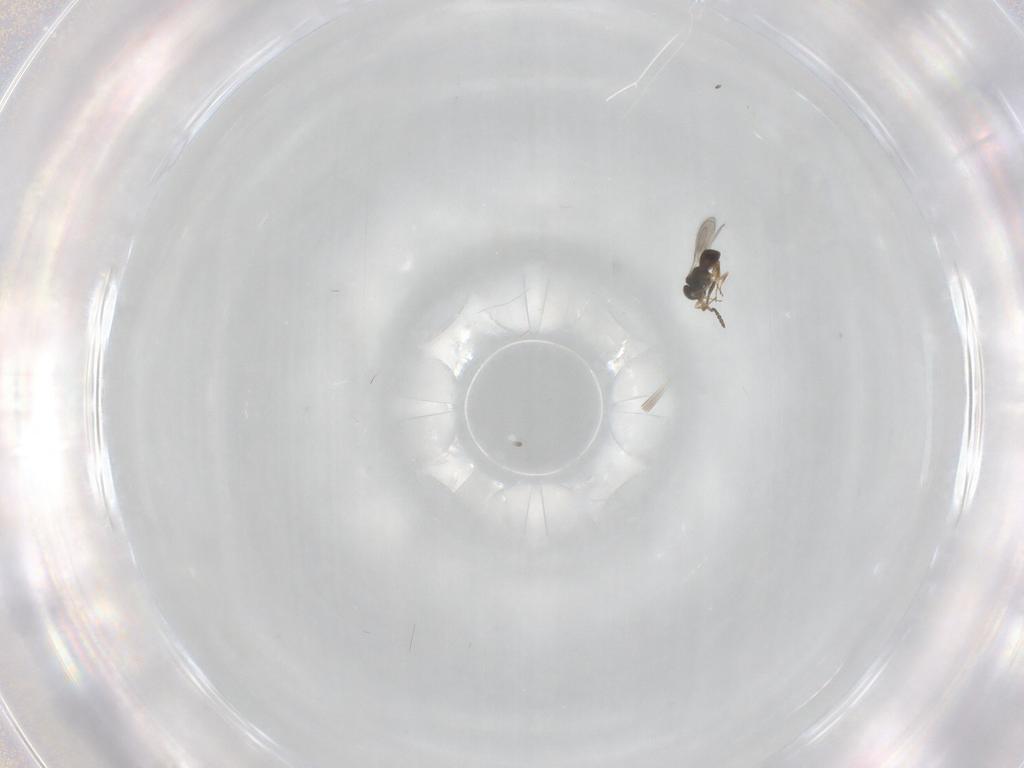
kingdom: Animalia
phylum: Arthropoda
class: Insecta
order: Hymenoptera
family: Scelionidae
